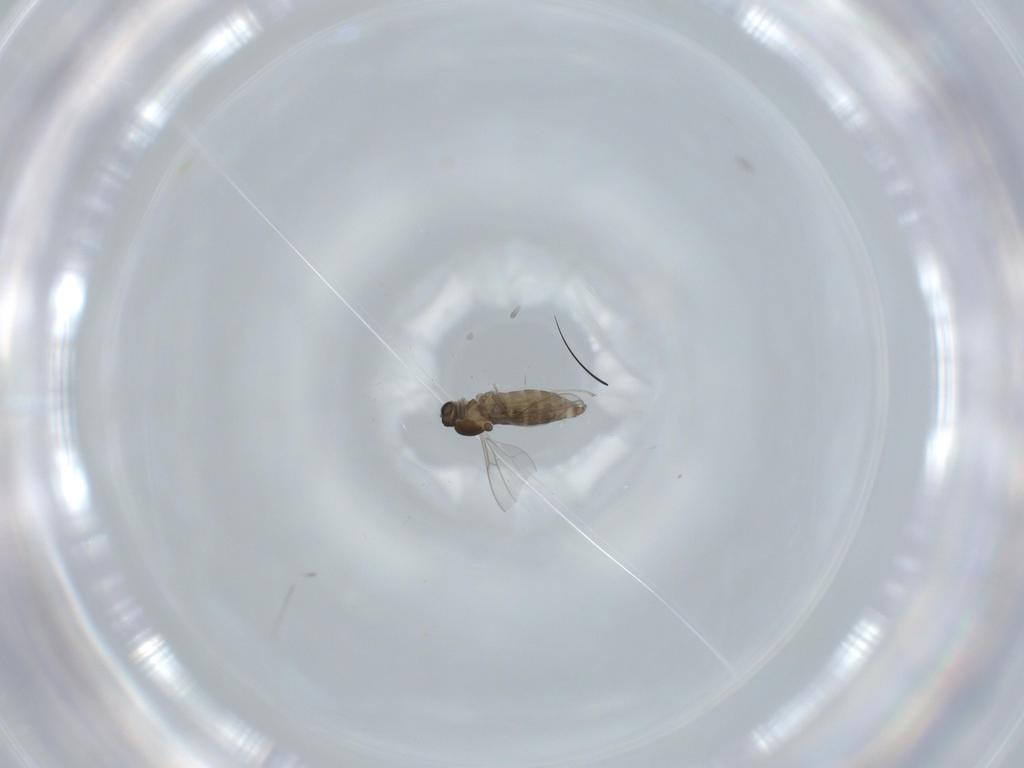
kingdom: Animalia
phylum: Arthropoda
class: Insecta
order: Diptera
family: Cecidomyiidae
